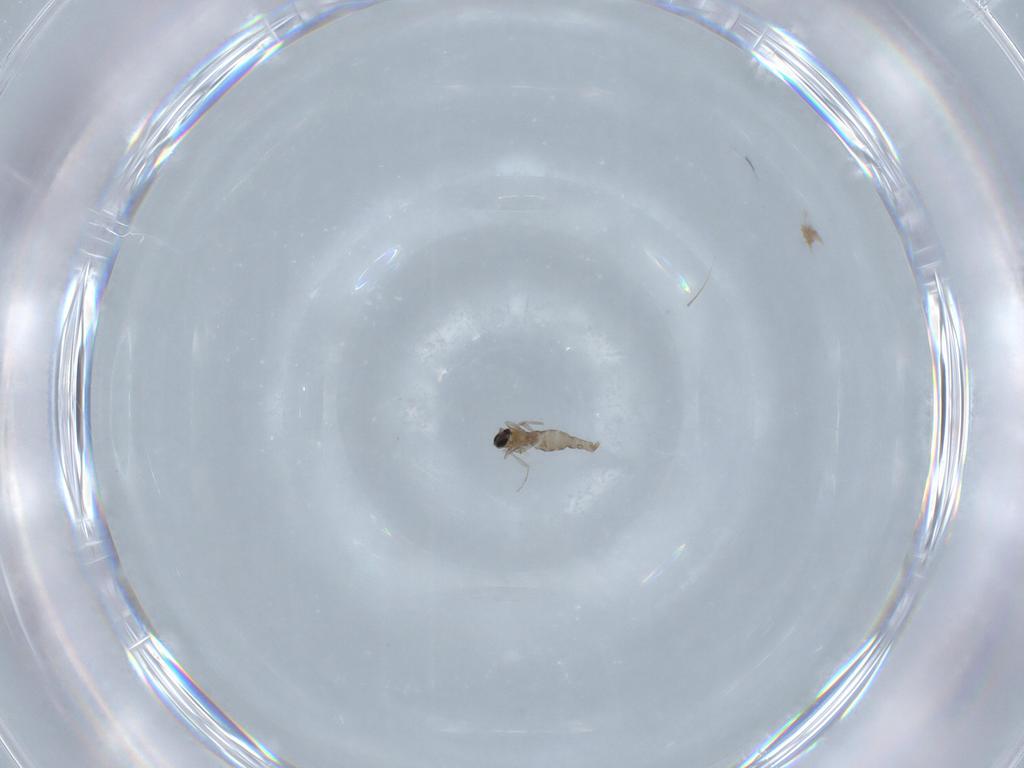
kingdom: Animalia
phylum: Arthropoda
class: Insecta
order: Diptera
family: Cecidomyiidae
